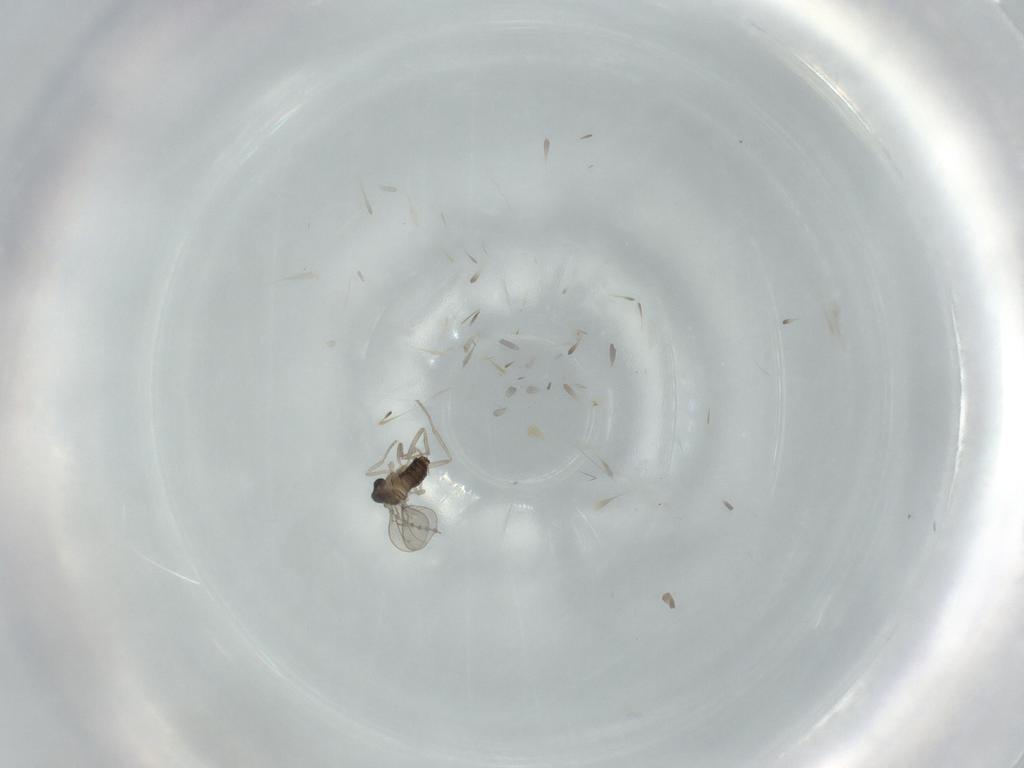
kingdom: Animalia
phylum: Arthropoda
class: Insecta
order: Diptera
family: Cecidomyiidae
